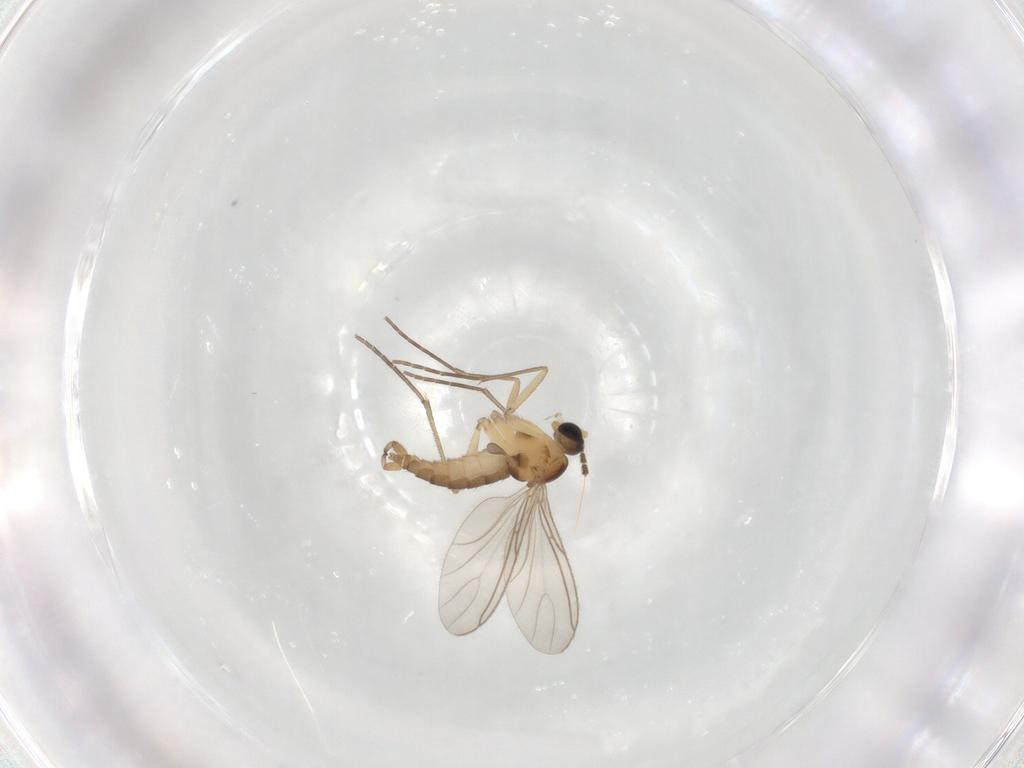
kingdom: Animalia
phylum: Arthropoda
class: Insecta
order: Diptera
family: Sciaridae
